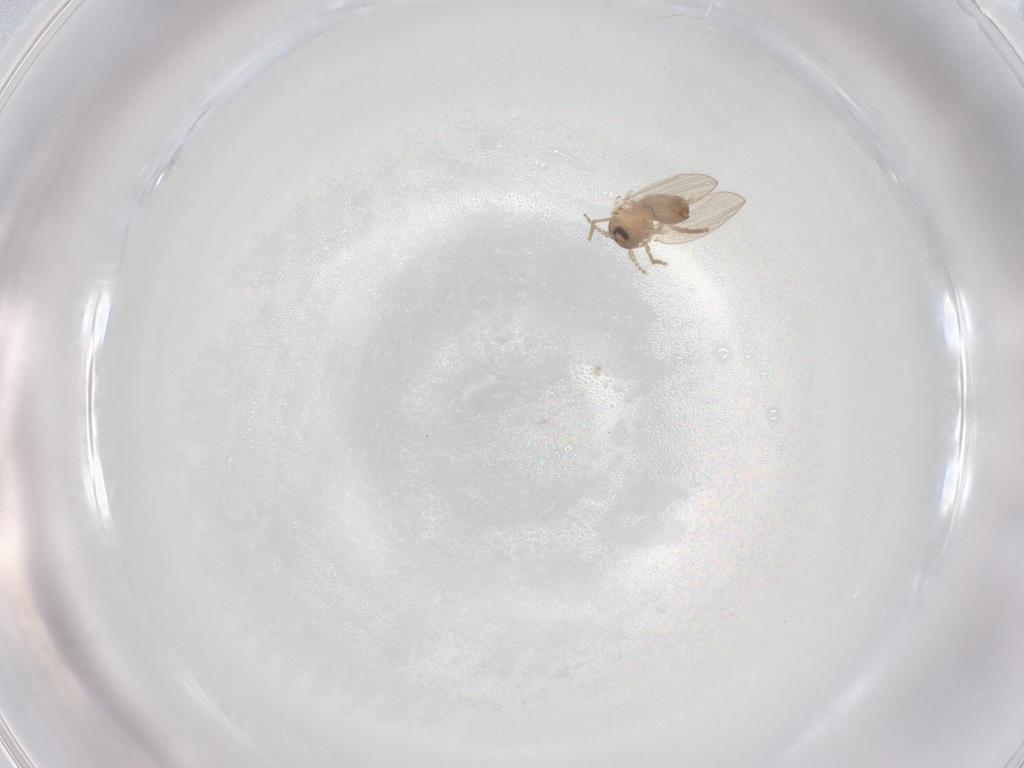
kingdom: Animalia
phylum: Arthropoda
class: Insecta
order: Diptera
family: Psychodidae
